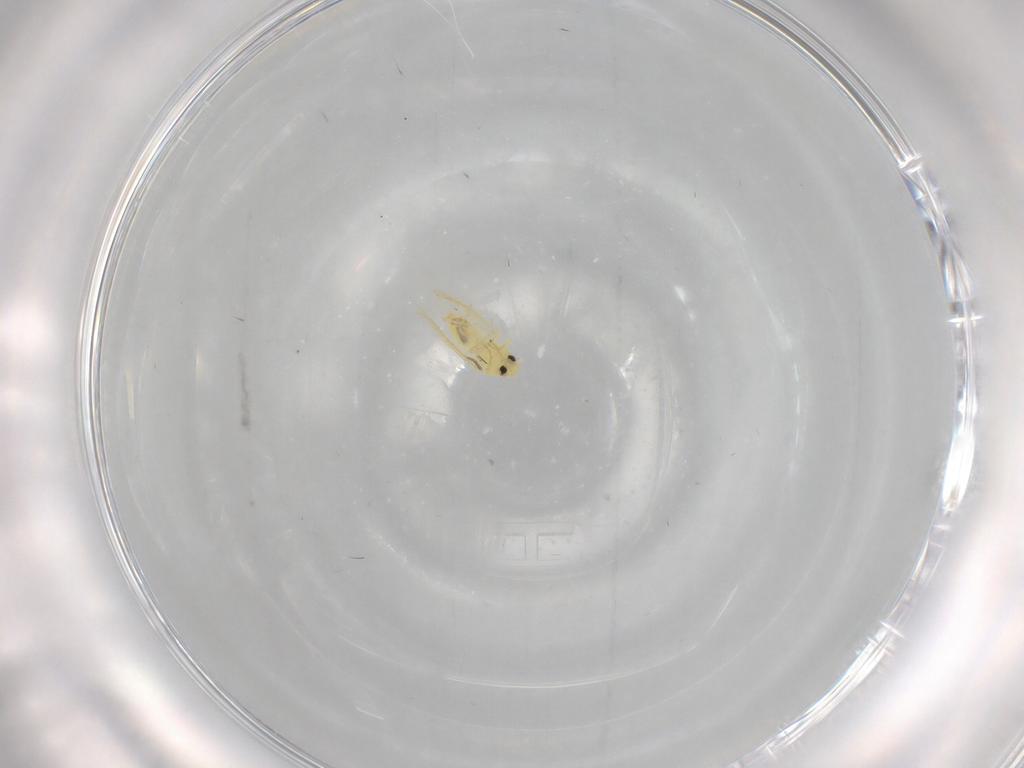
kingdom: Animalia
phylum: Arthropoda
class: Insecta
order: Hemiptera
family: Aleyrodidae
